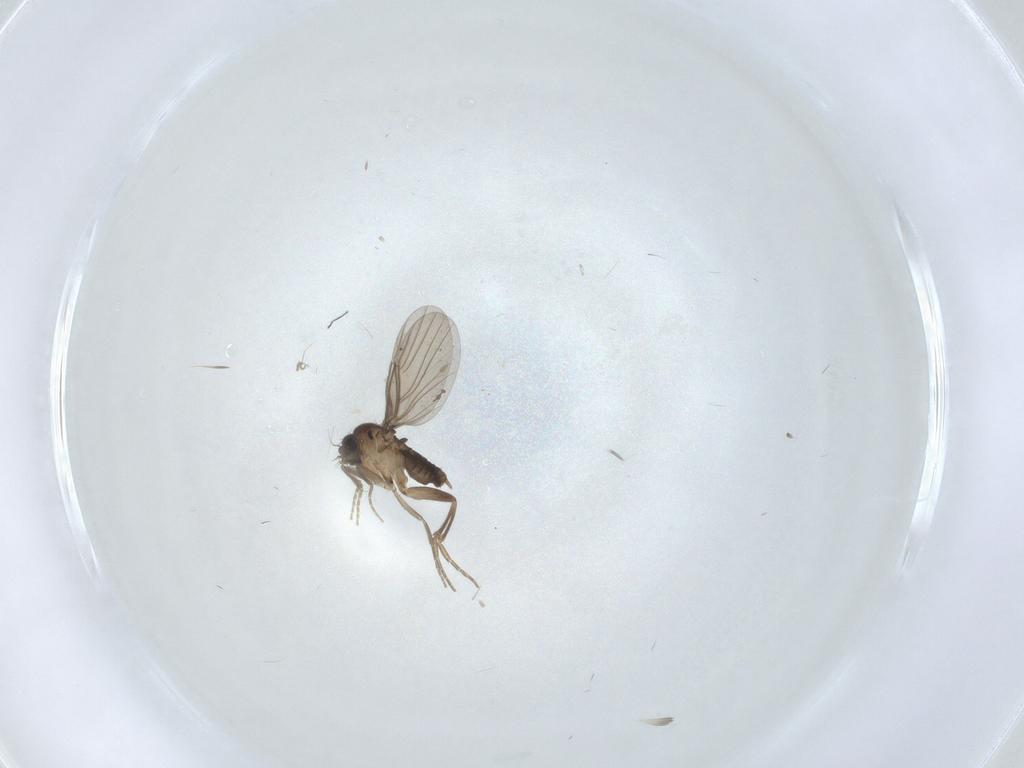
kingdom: Animalia
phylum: Arthropoda
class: Insecta
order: Diptera
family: Phoridae
